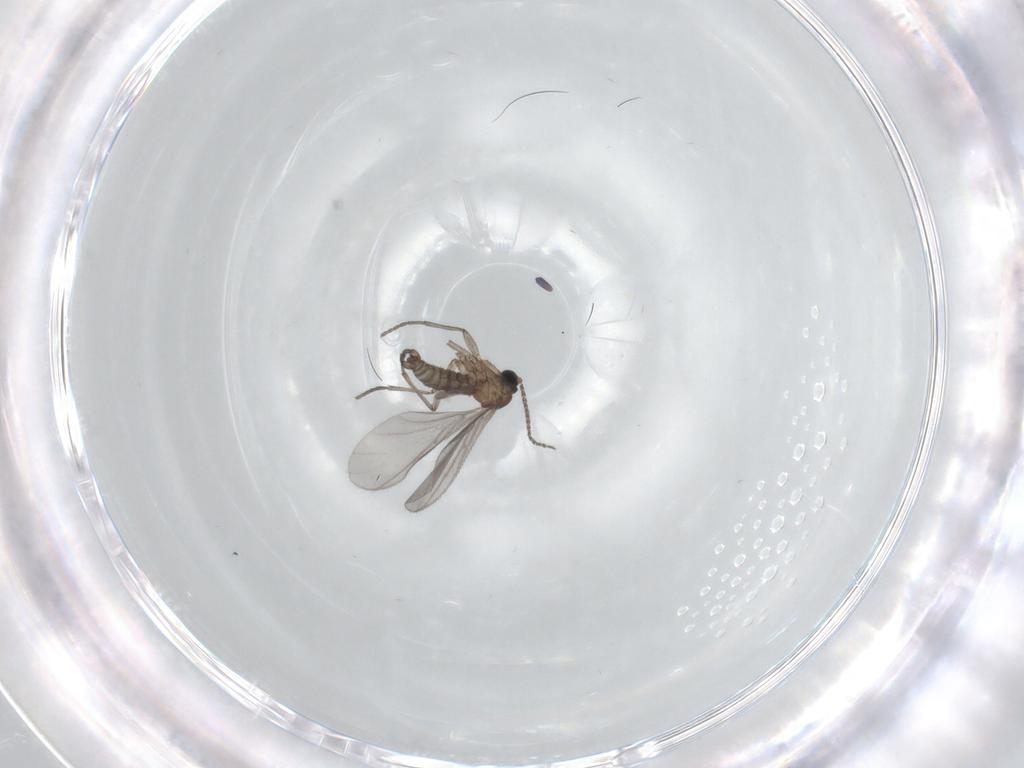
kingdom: Animalia
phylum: Arthropoda
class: Insecta
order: Diptera
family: Sciaridae
